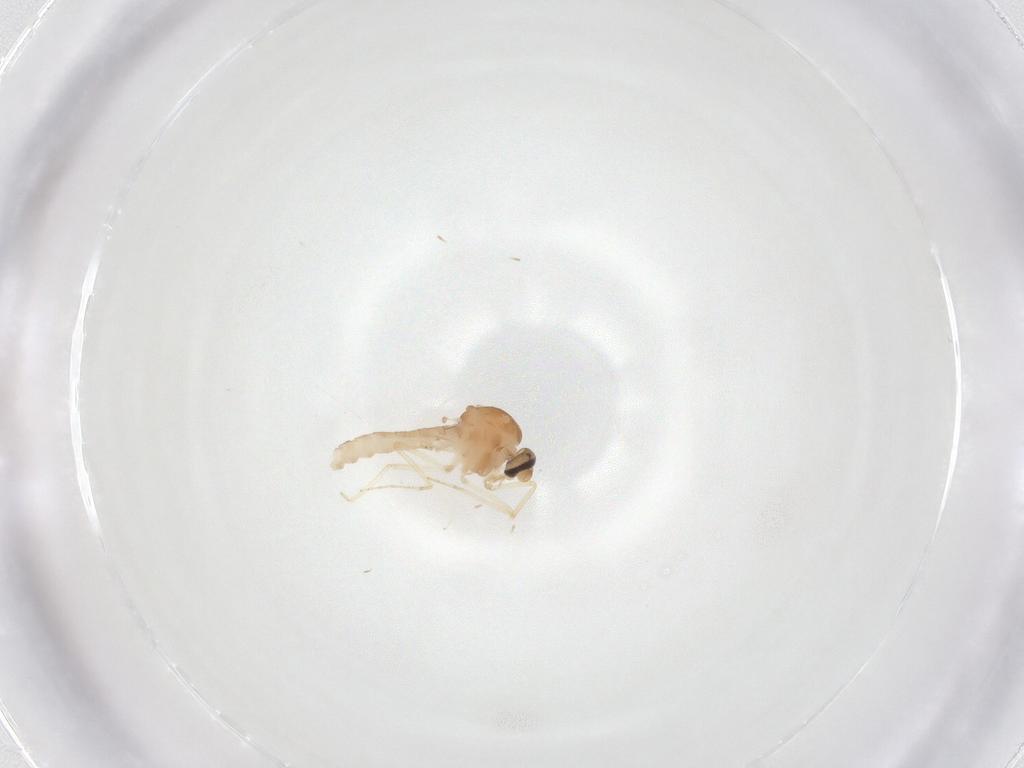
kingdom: Animalia
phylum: Arthropoda
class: Insecta
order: Diptera
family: Ceratopogonidae
